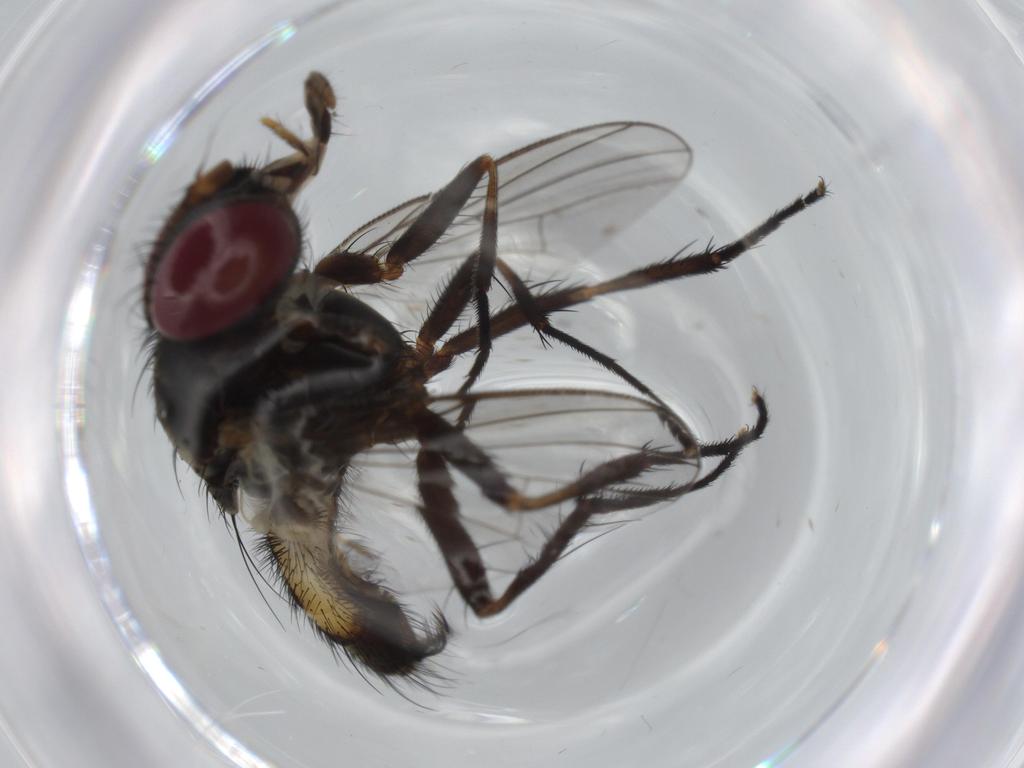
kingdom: Animalia
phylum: Arthropoda
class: Insecta
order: Diptera
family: Fannia
